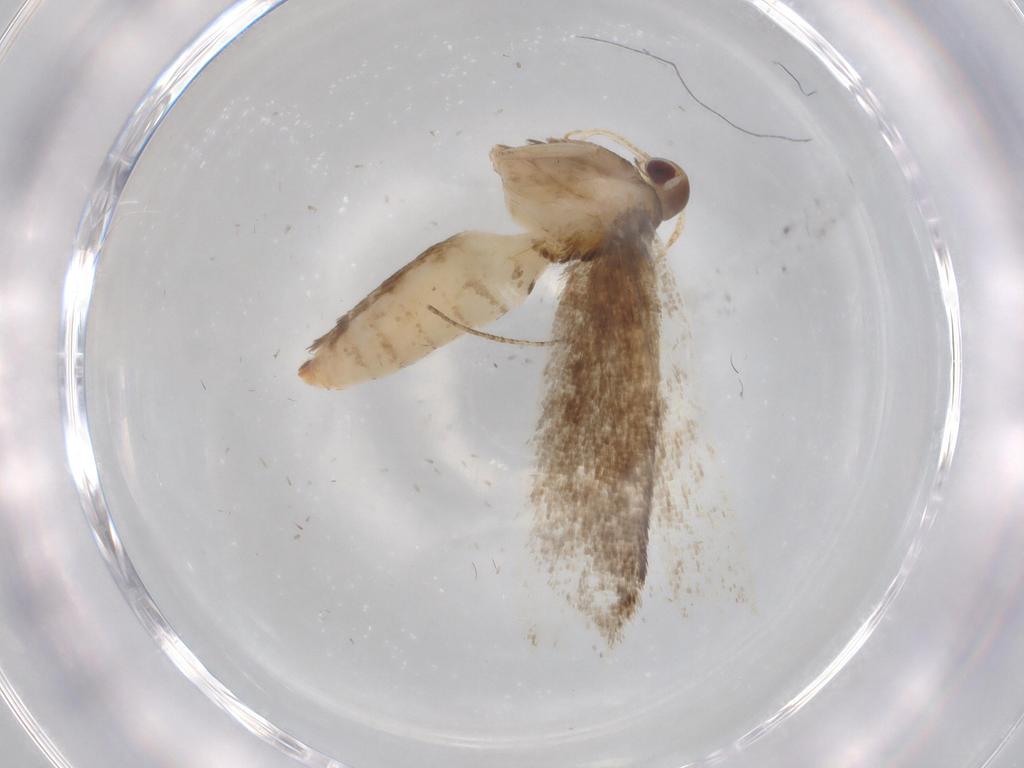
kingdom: Animalia
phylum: Arthropoda
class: Insecta
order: Lepidoptera
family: Gelechiidae
